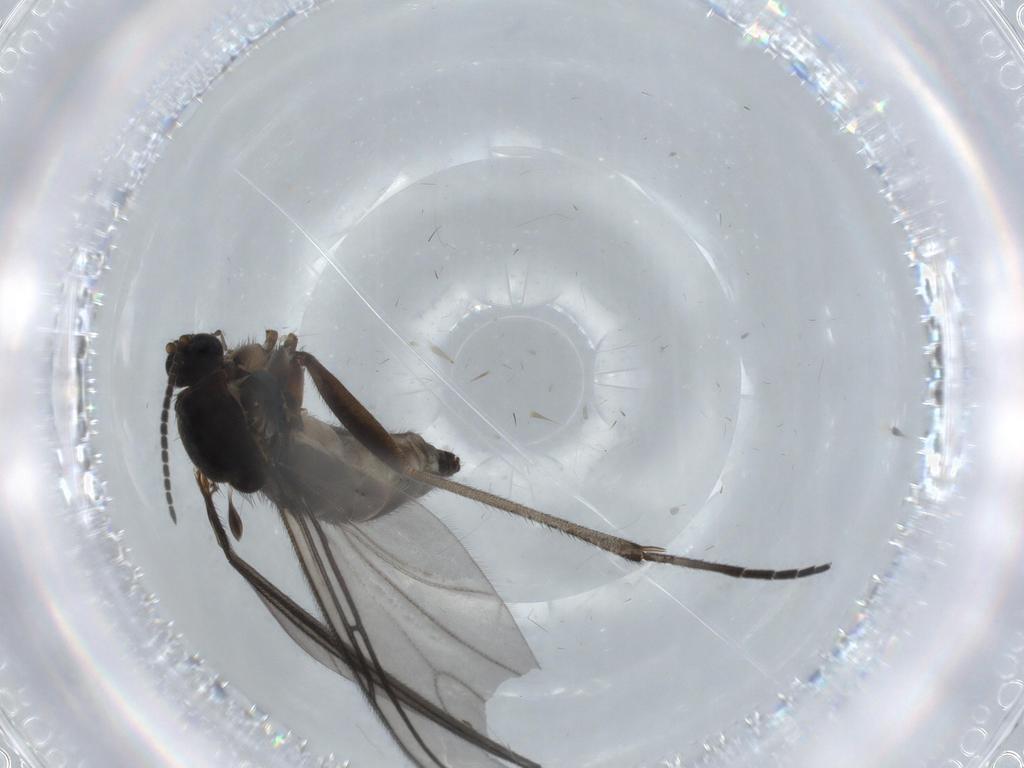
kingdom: Animalia
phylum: Arthropoda
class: Insecta
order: Diptera
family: Sciaridae
